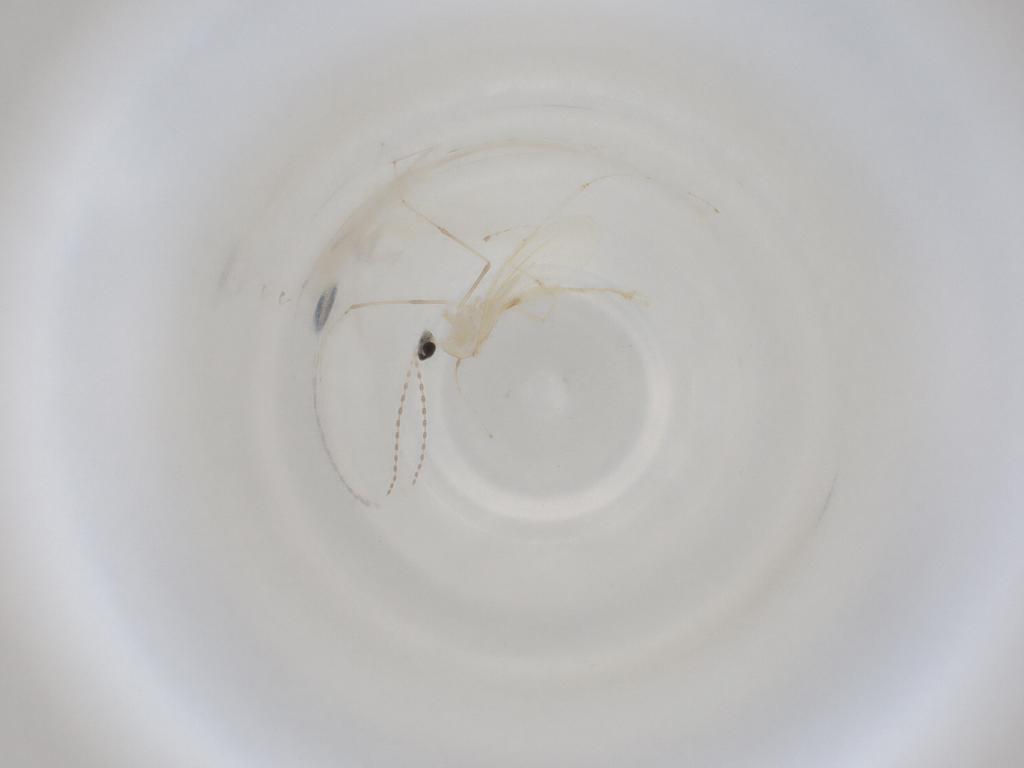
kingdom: Animalia
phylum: Arthropoda
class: Insecta
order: Diptera
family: Cecidomyiidae
